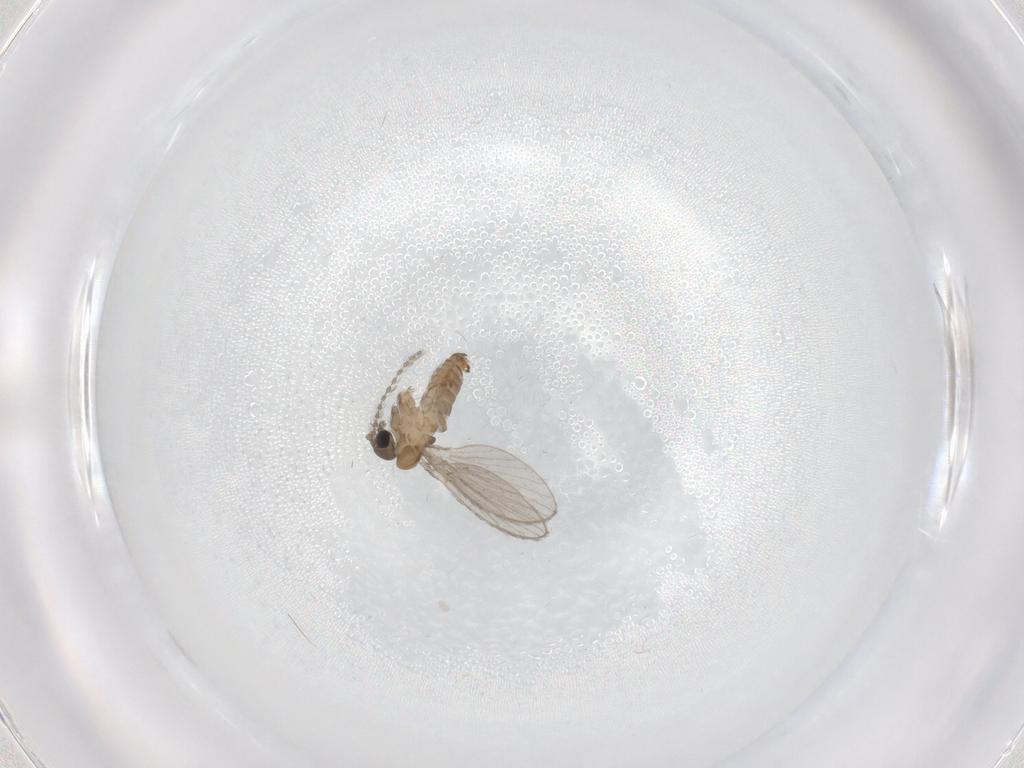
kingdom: Animalia
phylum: Arthropoda
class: Insecta
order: Diptera
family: Psychodidae
